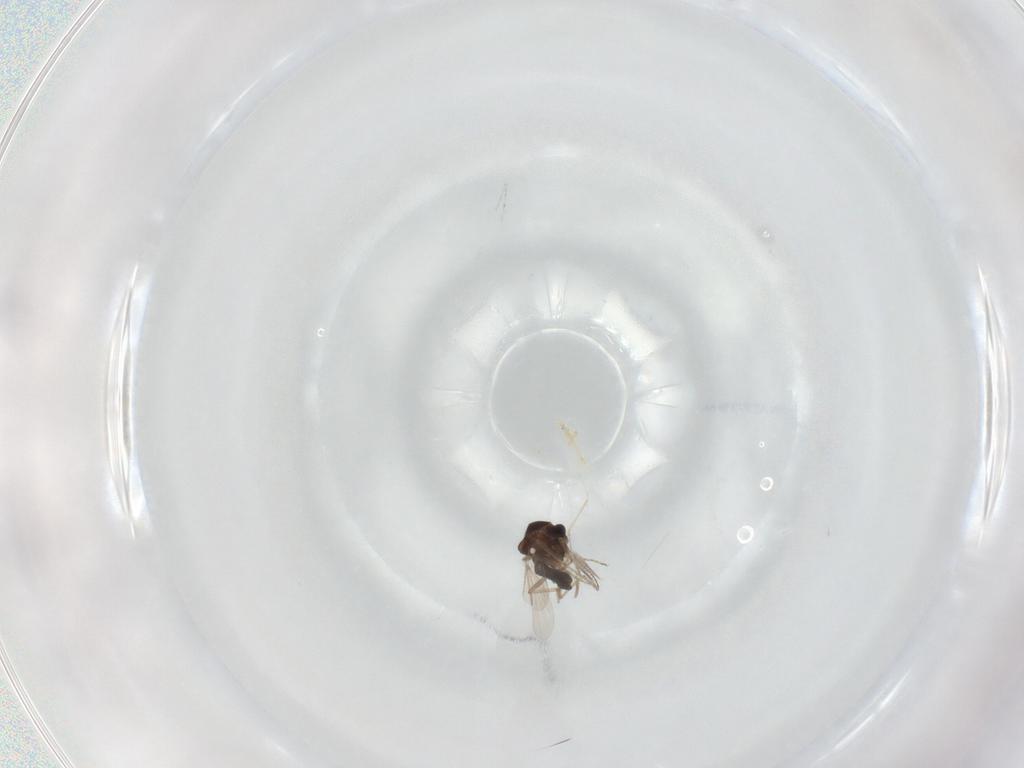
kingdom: Animalia
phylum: Arthropoda
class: Insecta
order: Diptera
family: Ceratopogonidae
